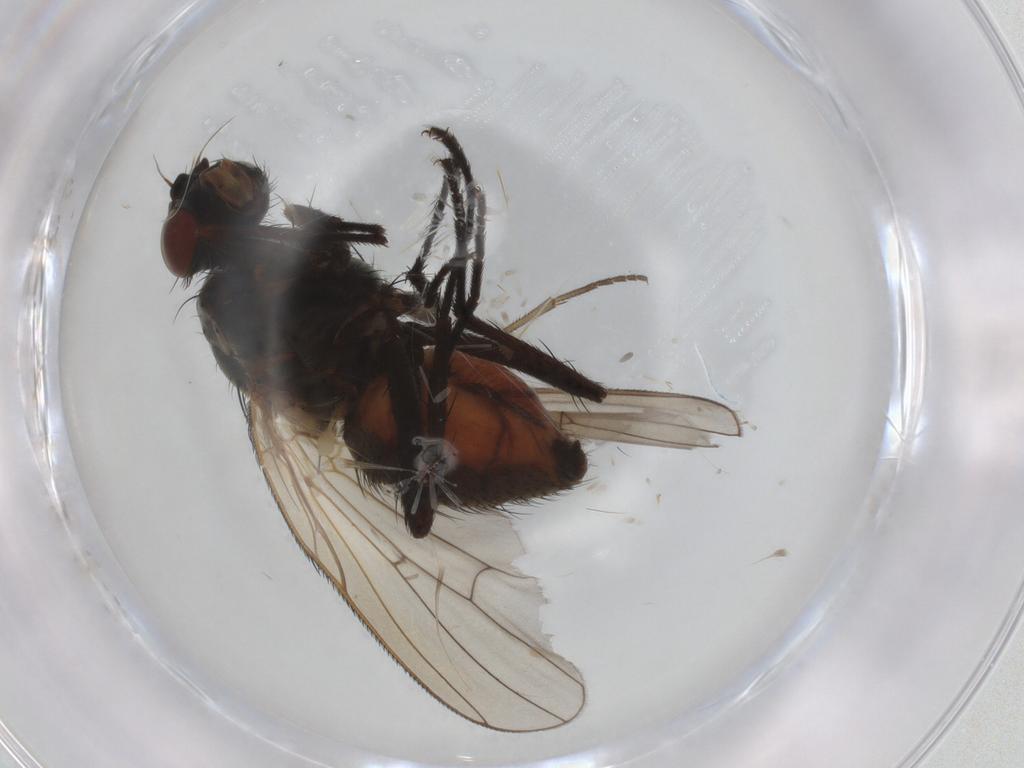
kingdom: Animalia
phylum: Arthropoda
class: Insecta
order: Diptera
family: Anthomyiidae
